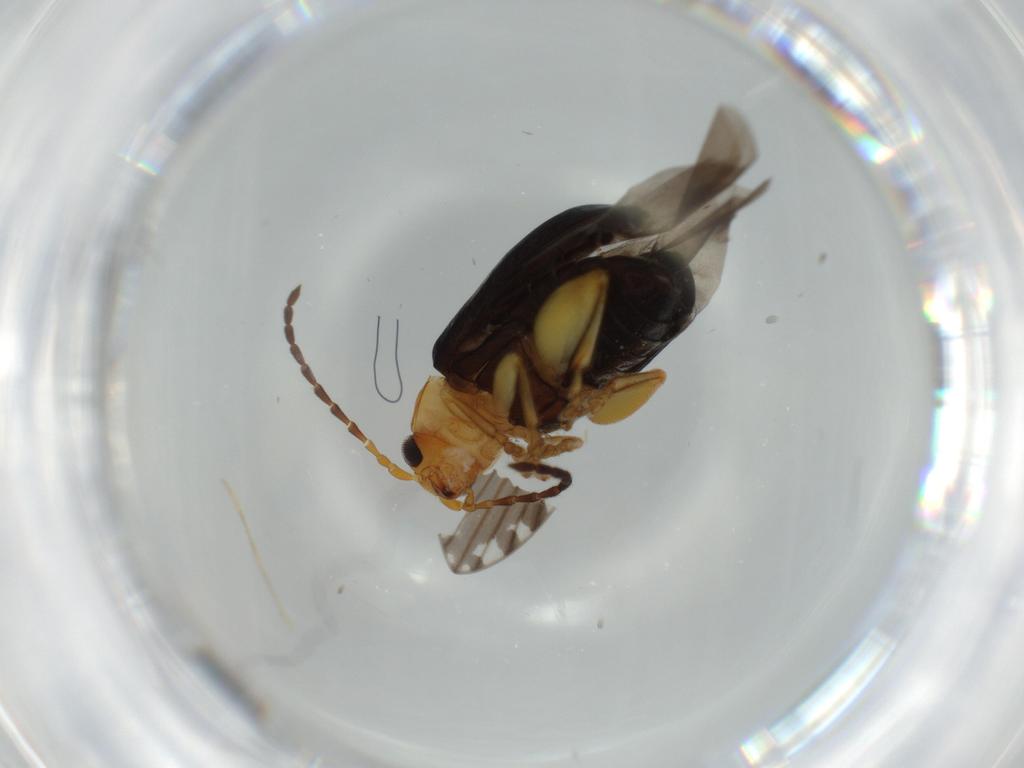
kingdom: Animalia
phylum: Arthropoda
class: Insecta
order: Coleoptera
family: Chrysomelidae
